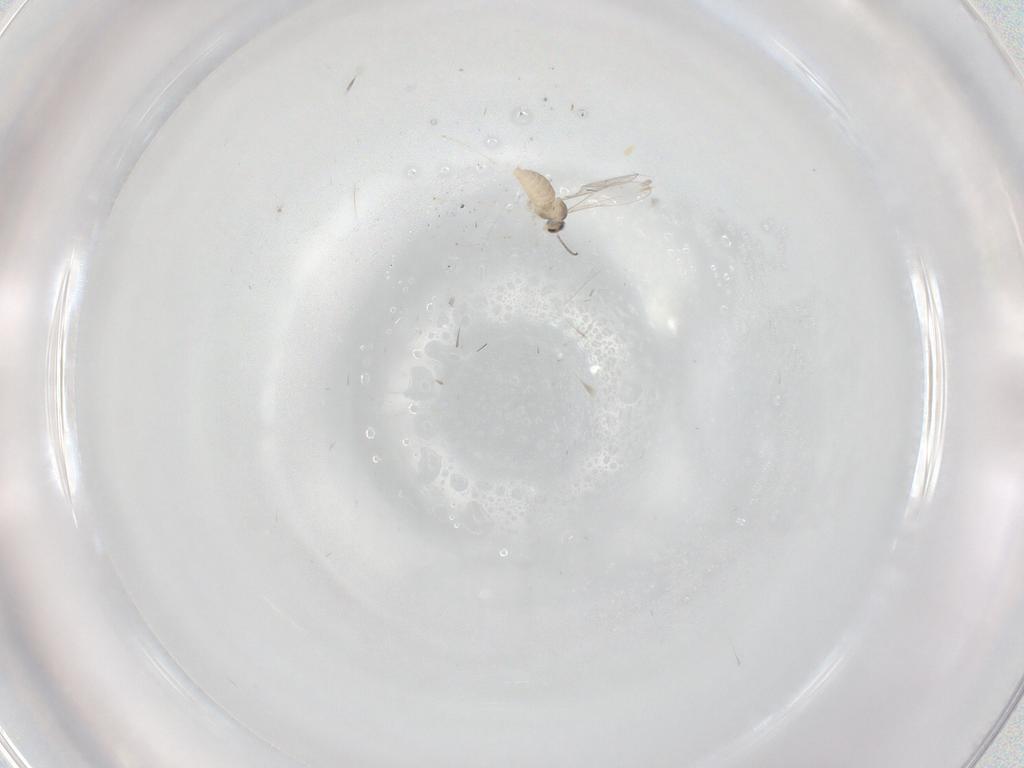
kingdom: Animalia
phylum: Arthropoda
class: Insecta
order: Diptera
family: Cecidomyiidae
